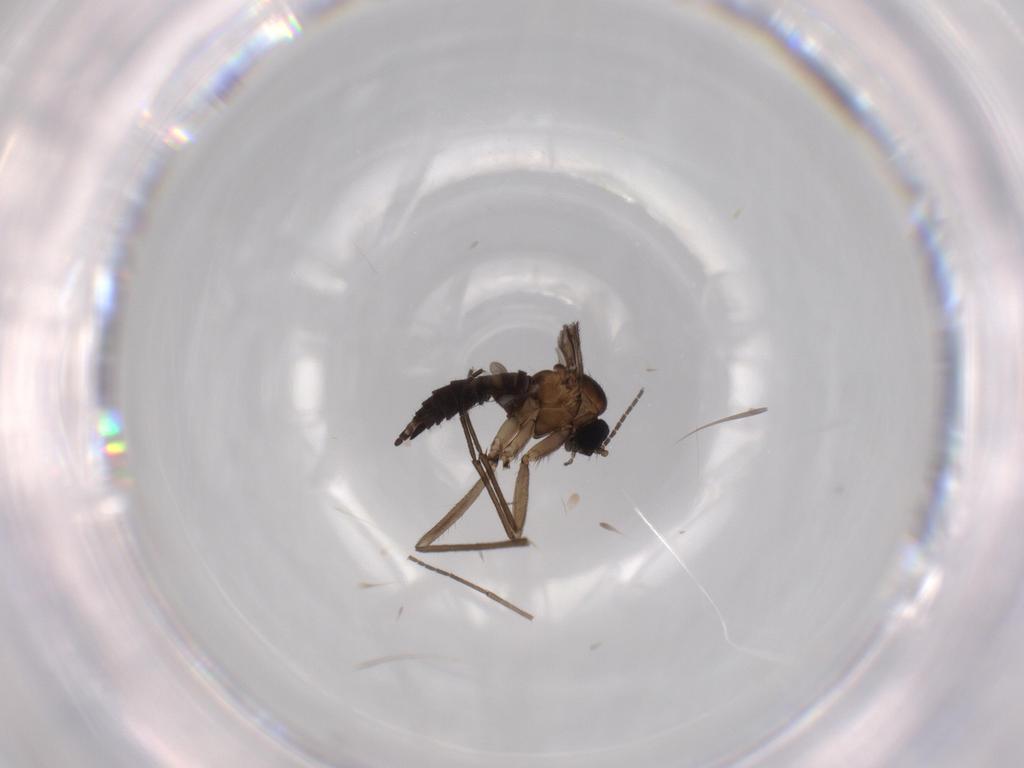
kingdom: Animalia
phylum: Arthropoda
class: Insecta
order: Diptera
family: Sciaridae
